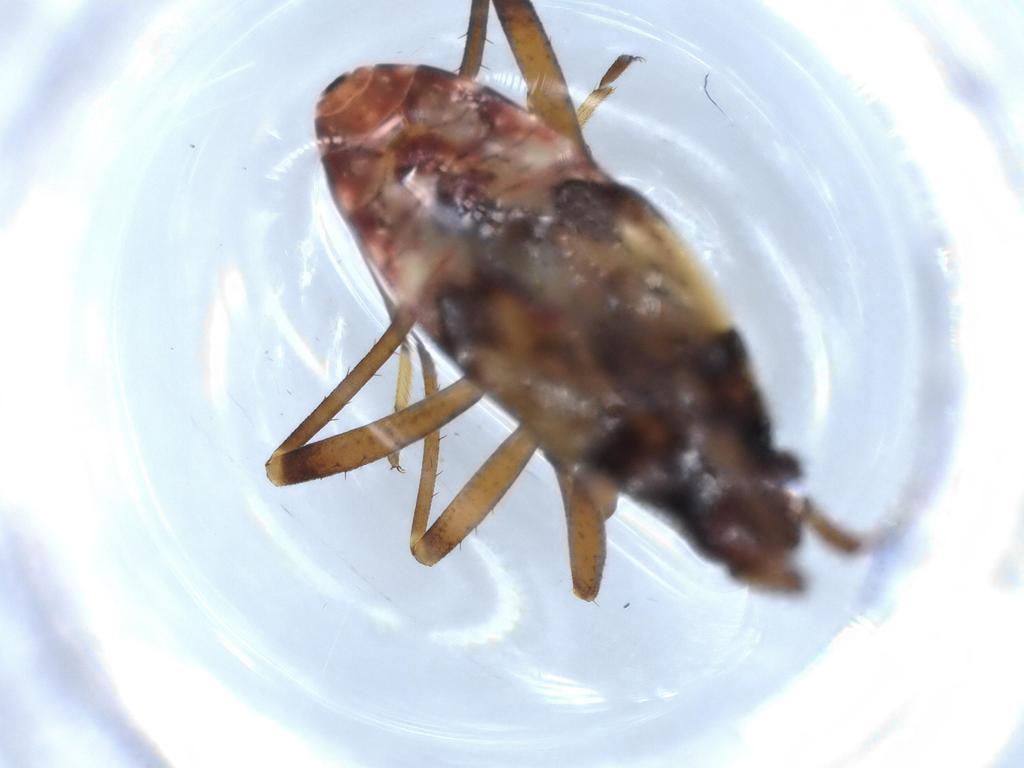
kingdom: Animalia
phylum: Arthropoda
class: Insecta
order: Hemiptera
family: Rhyparochromidae
